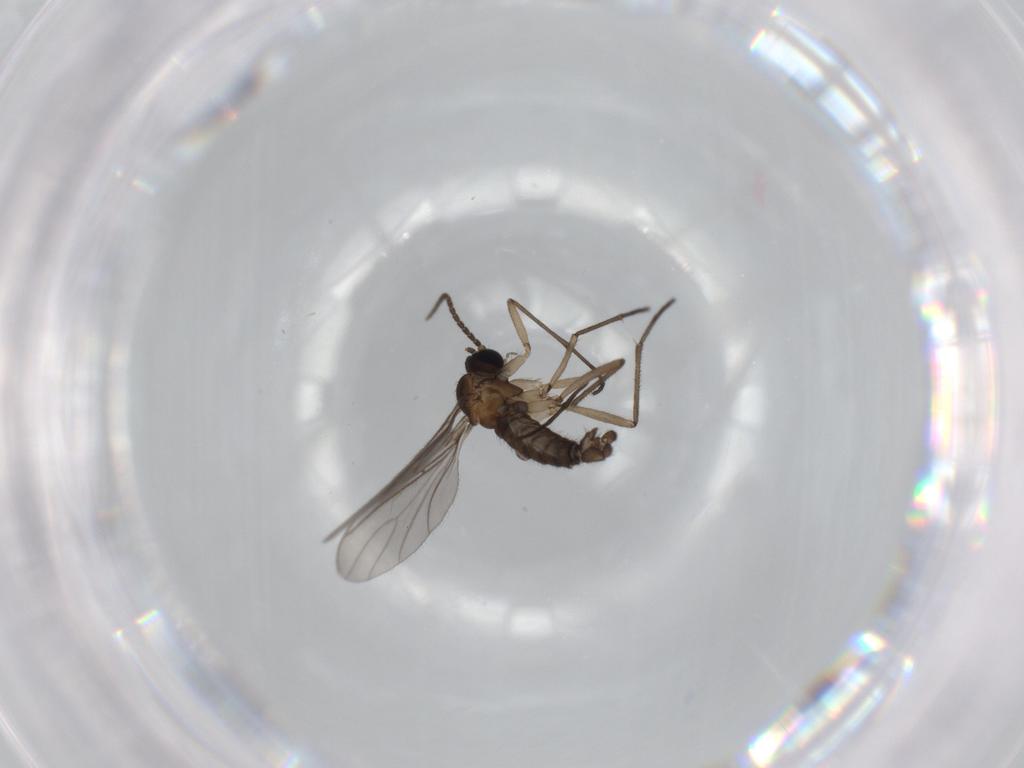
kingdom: Animalia
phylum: Arthropoda
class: Insecta
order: Diptera
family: Sciaridae
